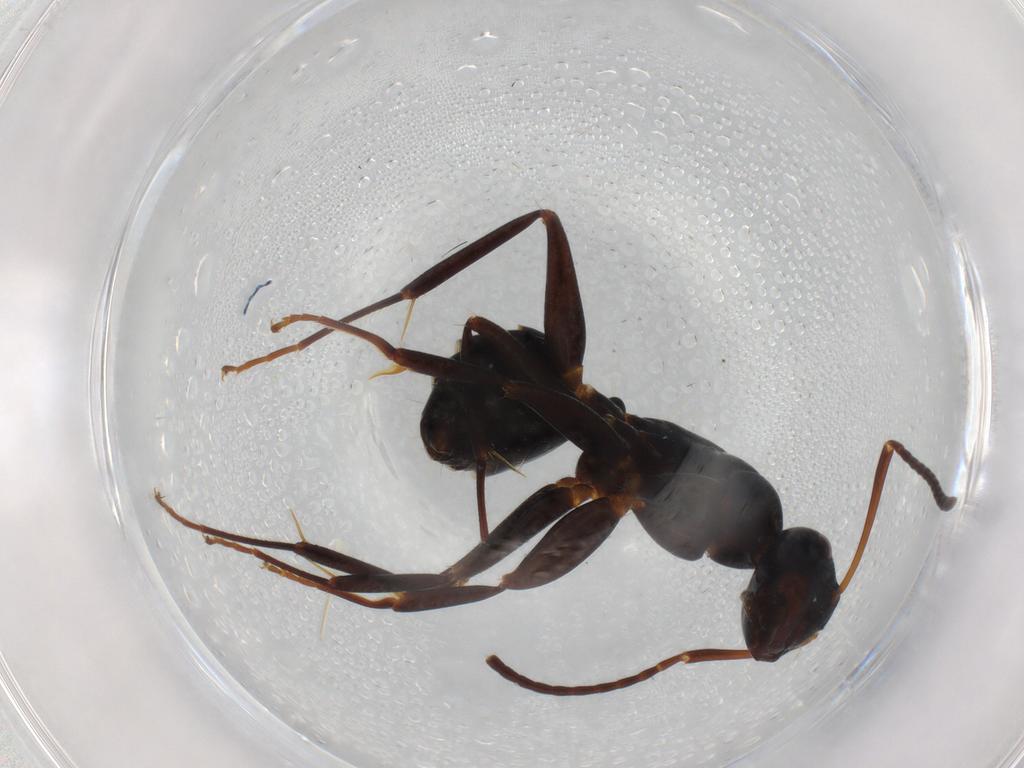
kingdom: Animalia
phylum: Arthropoda
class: Insecta
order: Hymenoptera
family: Formicidae
